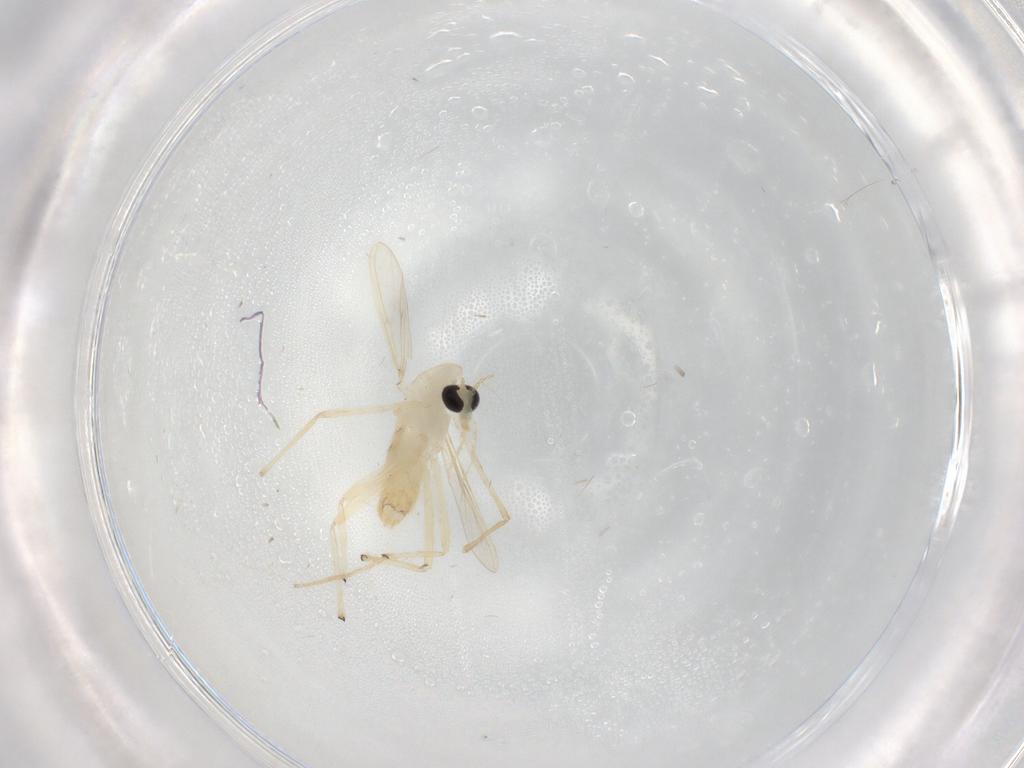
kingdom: Animalia
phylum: Arthropoda
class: Insecta
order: Diptera
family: Chironomidae
